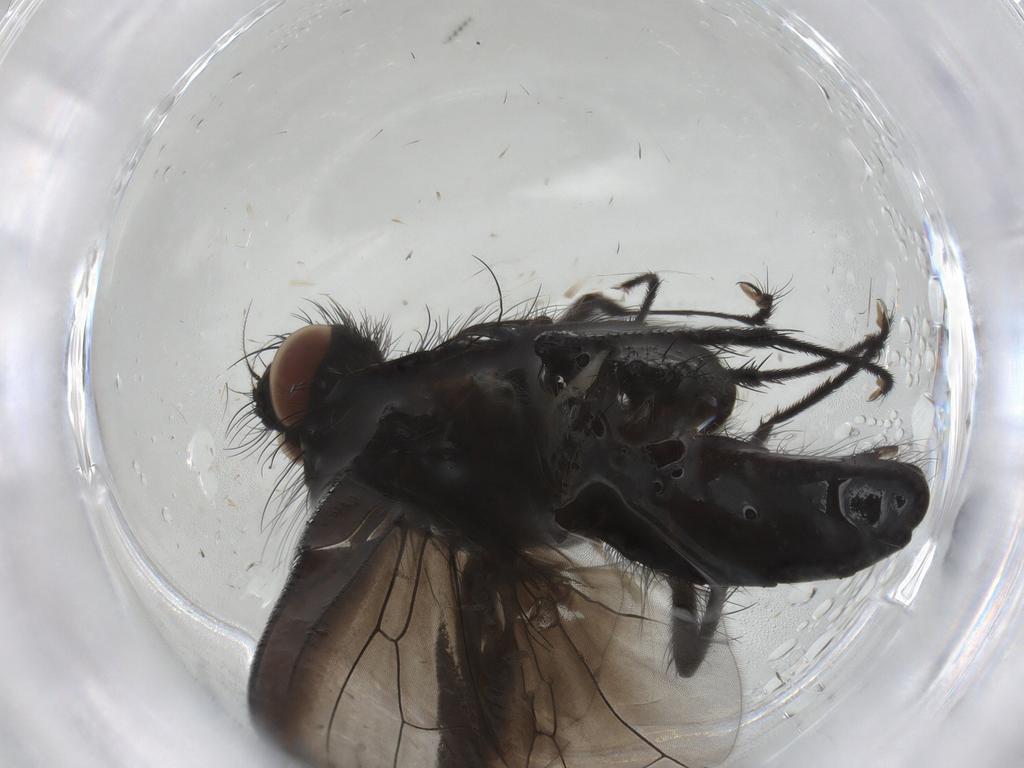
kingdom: Animalia
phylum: Arthropoda
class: Insecta
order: Diptera
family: Anthomyiidae
